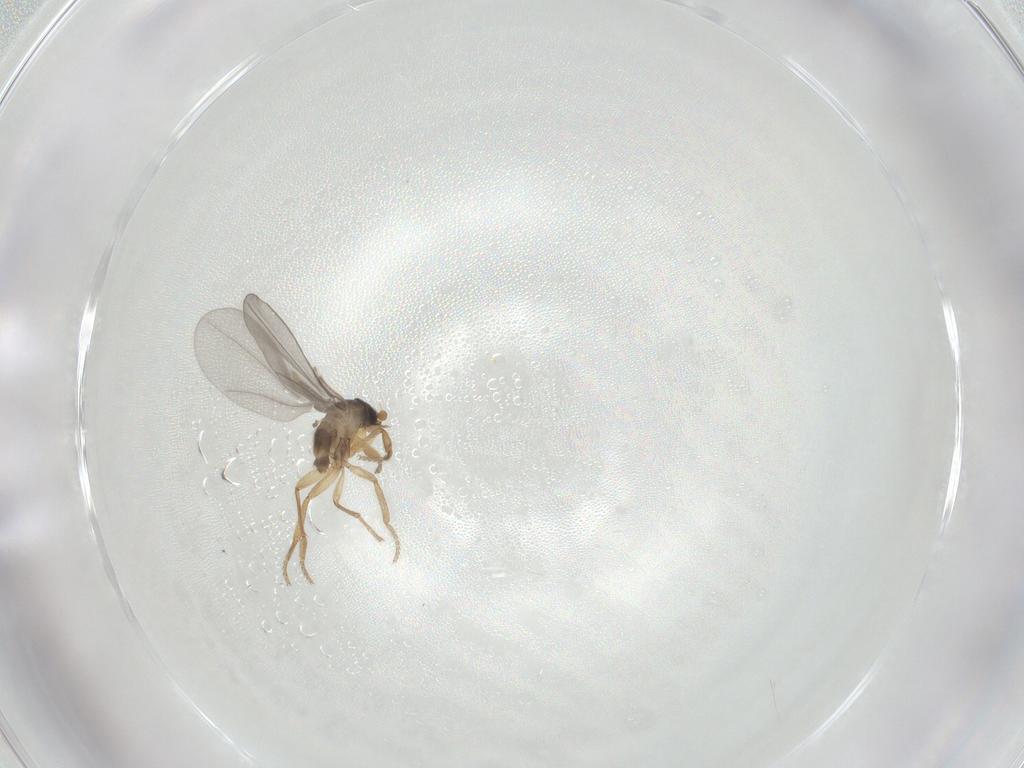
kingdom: Animalia
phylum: Arthropoda
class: Insecta
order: Diptera
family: Phoridae
